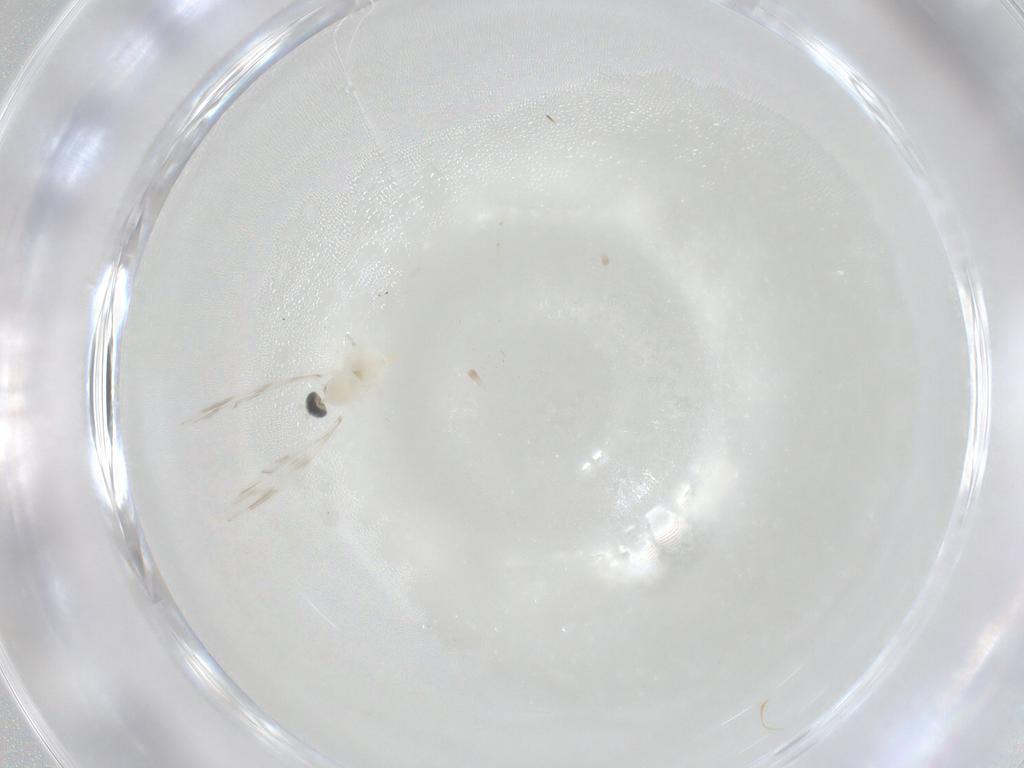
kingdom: Animalia
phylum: Arthropoda
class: Insecta
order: Diptera
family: Cecidomyiidae
